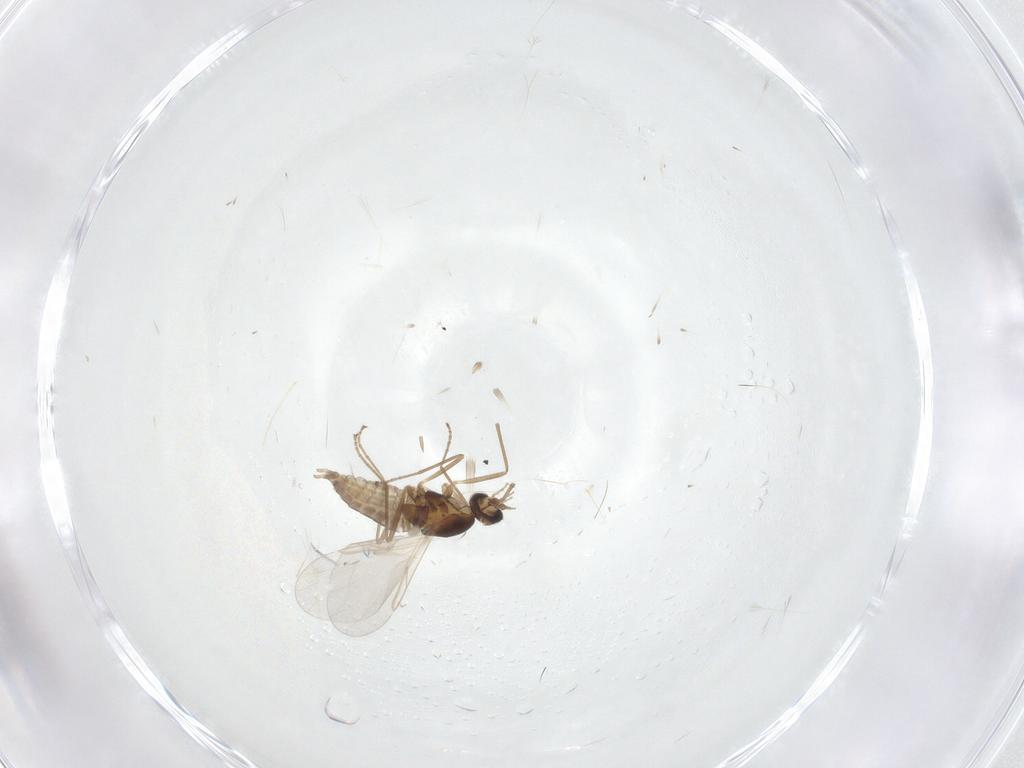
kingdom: Animalia
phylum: Arthropoda
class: Insecta
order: Diptera
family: Cecidomyiidae
